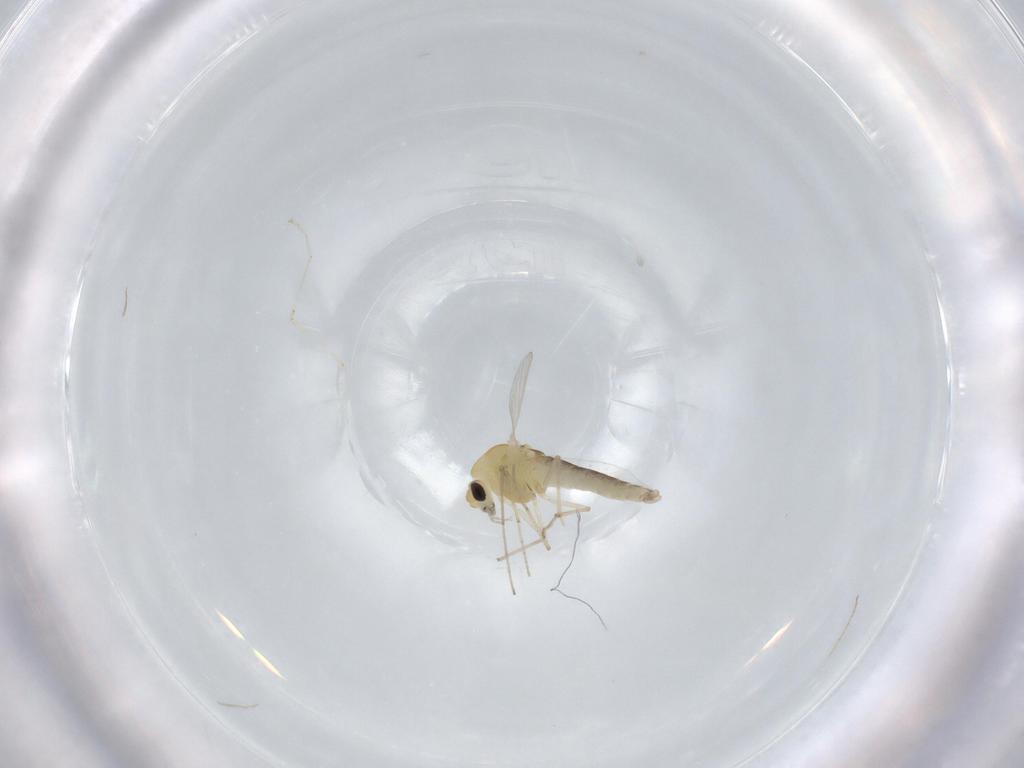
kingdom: Animalia
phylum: Arthropoda
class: Insecta
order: Diptera
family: Chironomidae
